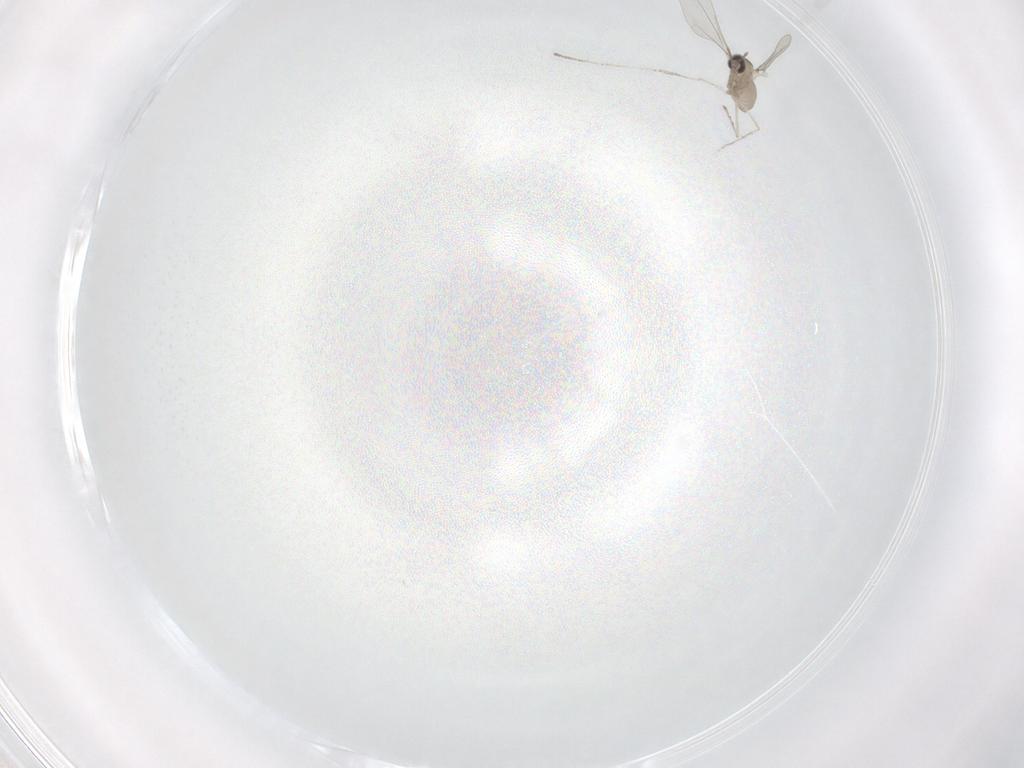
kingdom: Animalia
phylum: Arthropoda
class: Insecta
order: Diptera
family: Cecidomyiidae
